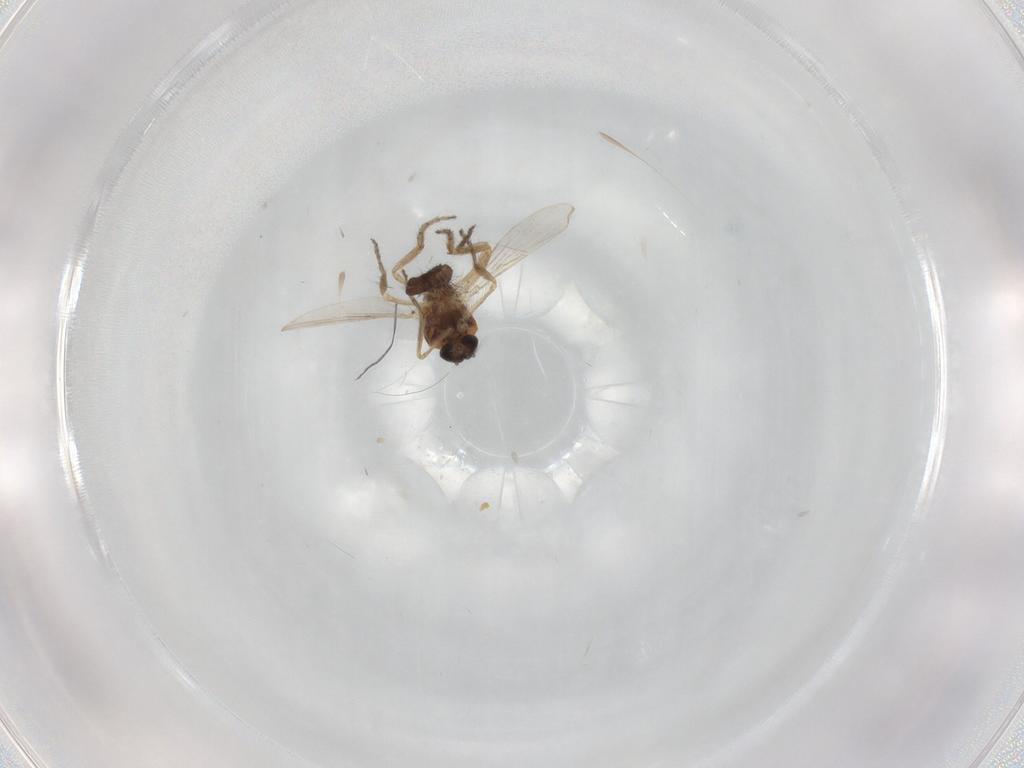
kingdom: Animalia
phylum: Arthropoda
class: Insecta
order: Diptera
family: Ceratopogonidae
